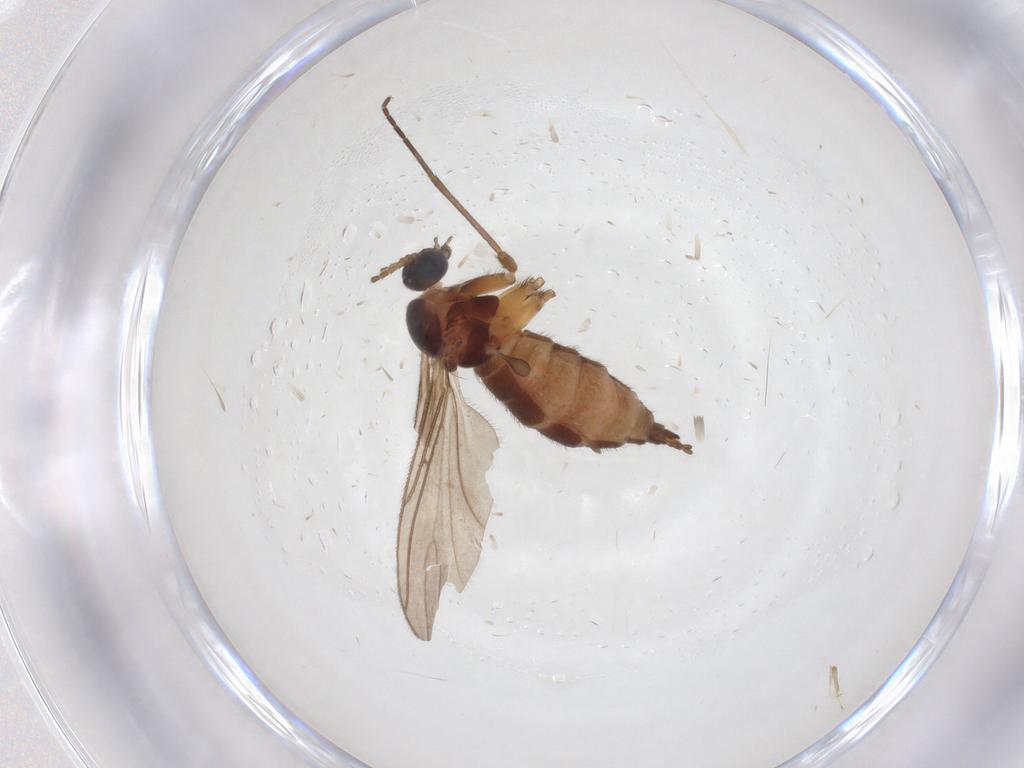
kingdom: Animalia
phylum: Arthropoda
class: Insecta
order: Diptera
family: Sciaridae
